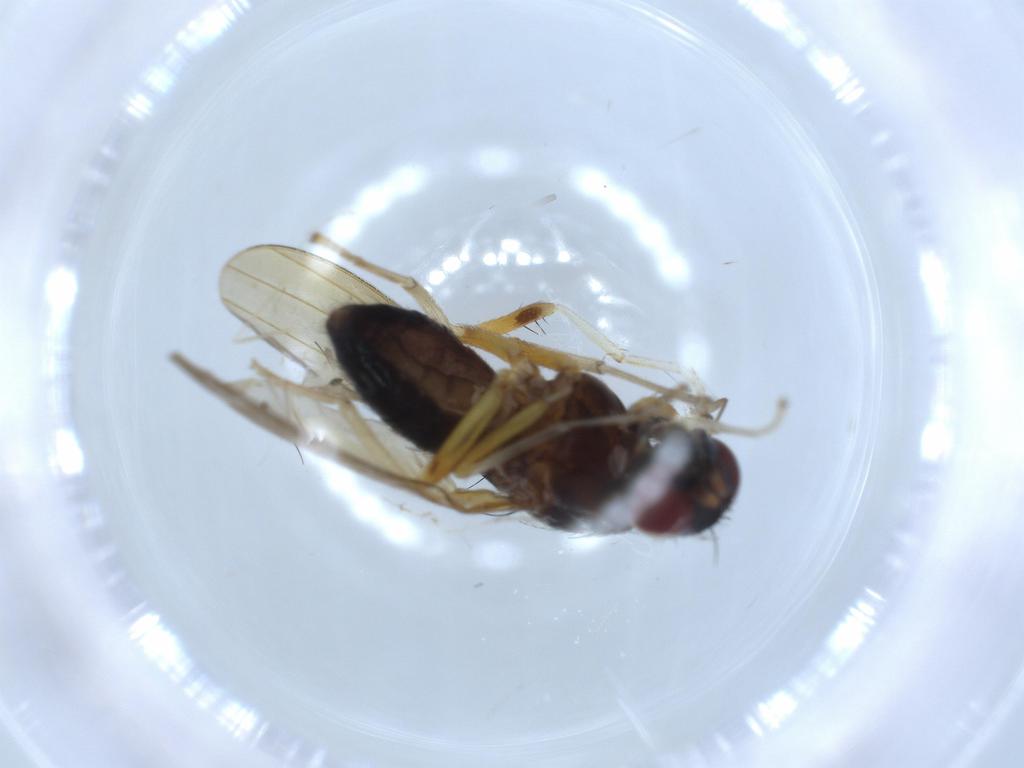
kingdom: Animalia
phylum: Arthropoda
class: Insecta
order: Diptera
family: Sciaridae
